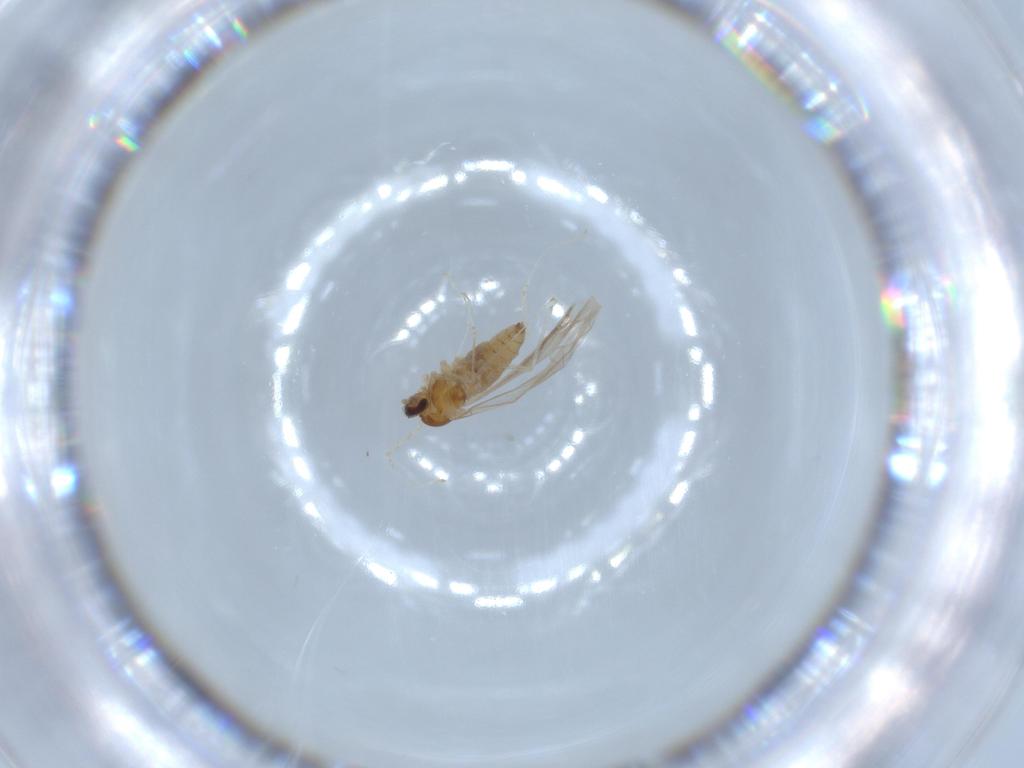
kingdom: Animalia
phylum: Arthropoda
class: Insecta
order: Diptera
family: Cecidomyiidae
